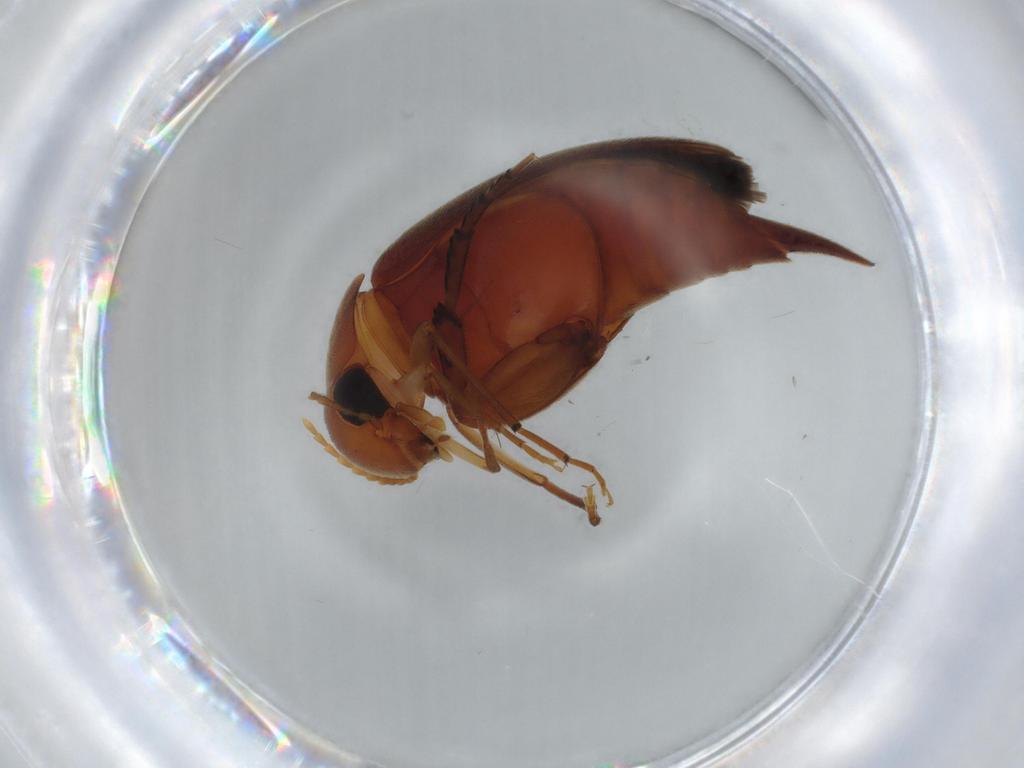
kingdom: Animalia
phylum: Arthropoda
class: Insecta
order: Coleoptera
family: Mordellidae
